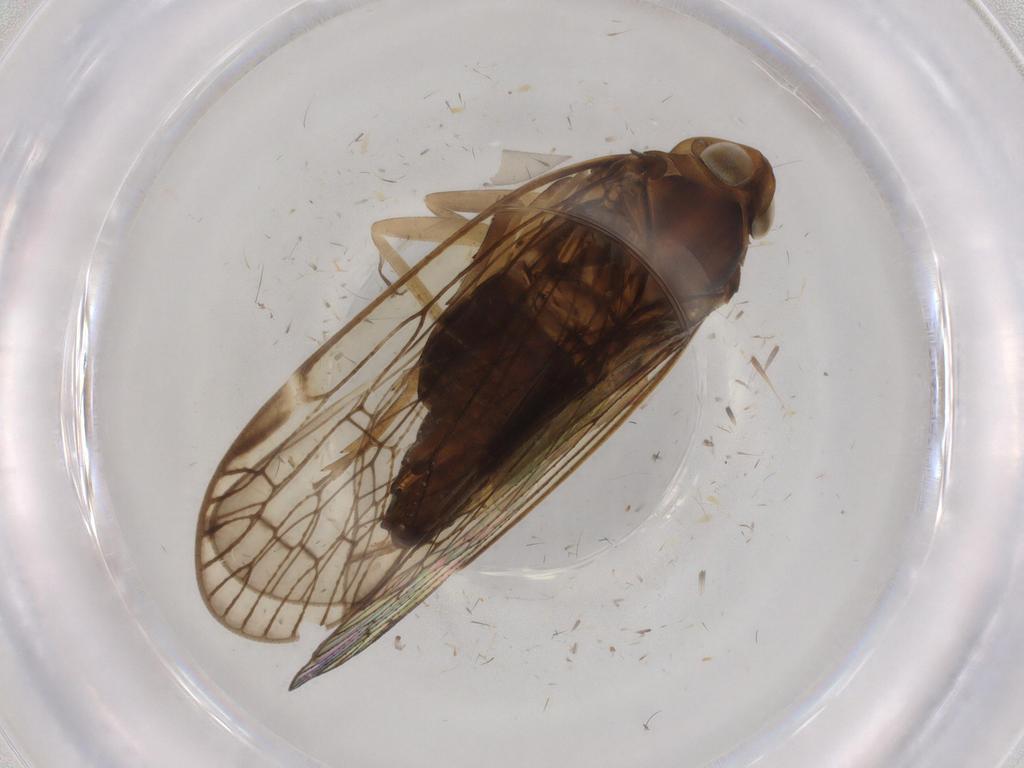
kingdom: Animalia
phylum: Arthropoda
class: Insecta
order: Hemiptera
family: Cixiidae
